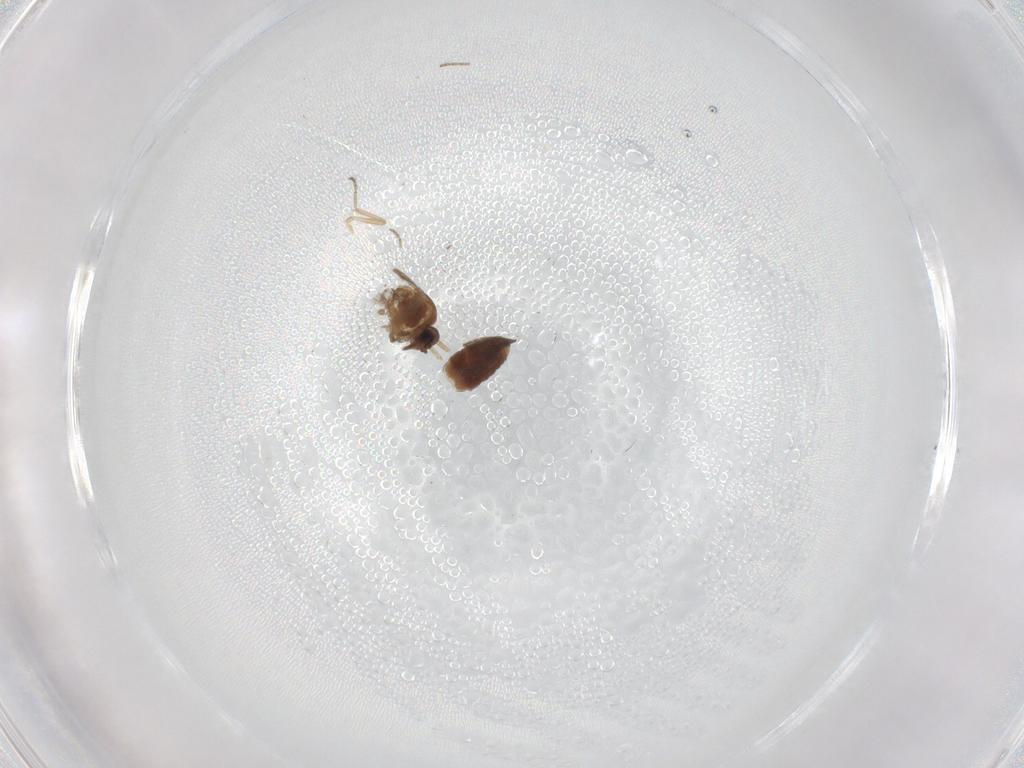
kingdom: Animalia
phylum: Arthropoda
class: Insecta
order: Diptera
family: Ceratopogonidae
